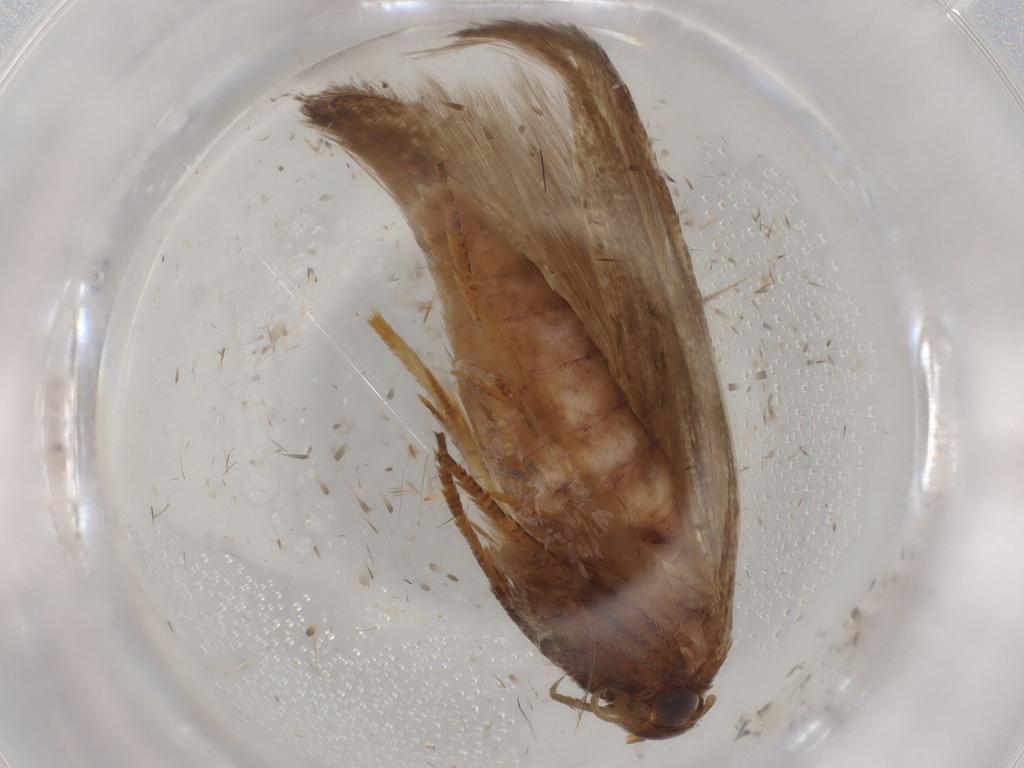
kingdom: Animalia
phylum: Arthropoda
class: Insecta
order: Lepidoptera
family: Blastobasidae
